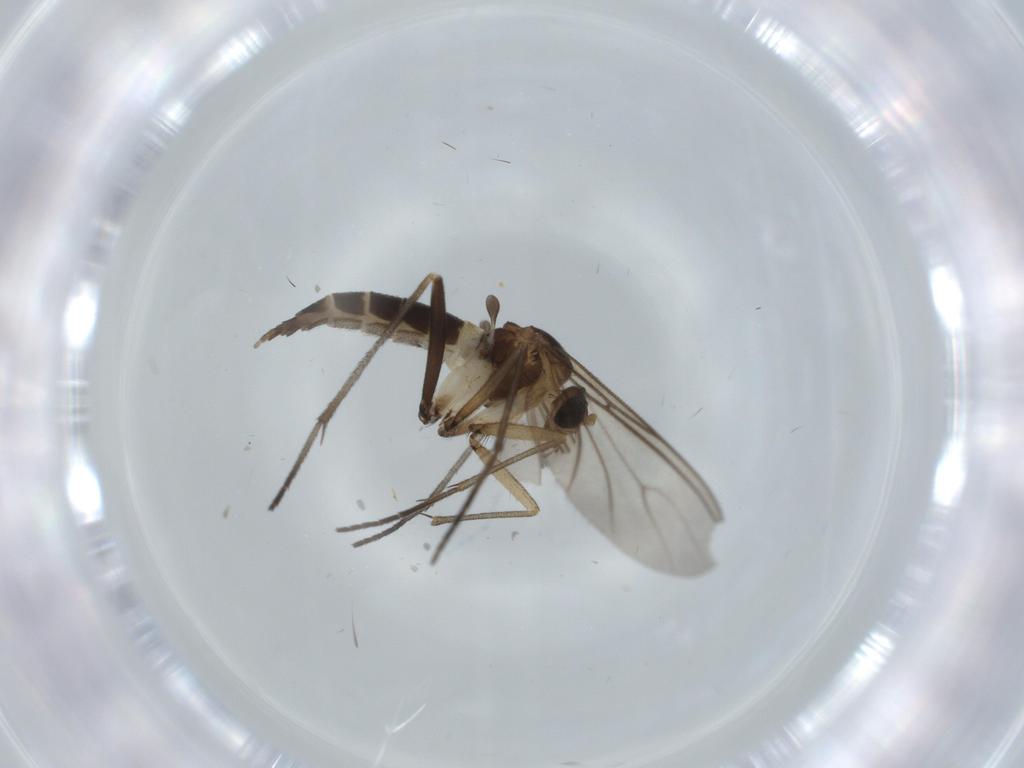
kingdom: Animalia
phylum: Arthropoda
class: Insecta
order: Diptera
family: Sciaridae
